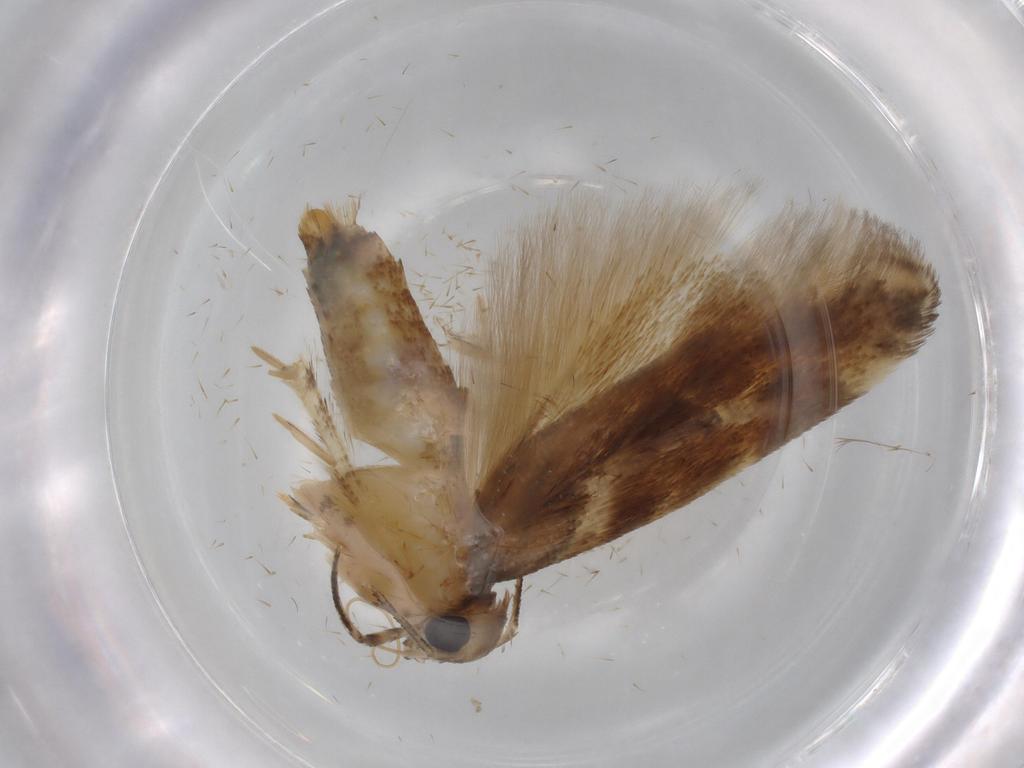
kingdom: Animalia
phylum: Arthropoda
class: Insecta
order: Lepidoptera
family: Gelechiidae
